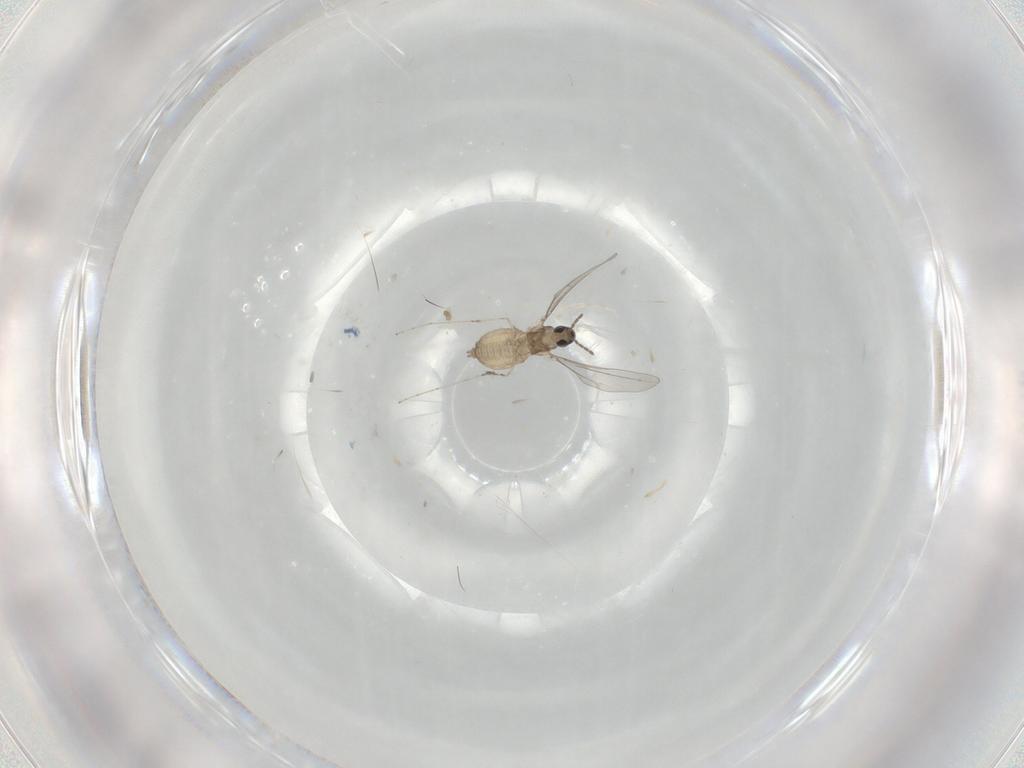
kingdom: Animalia
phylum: Arthropoda
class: Insecta
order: Diptera
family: Cecidomyiidae
